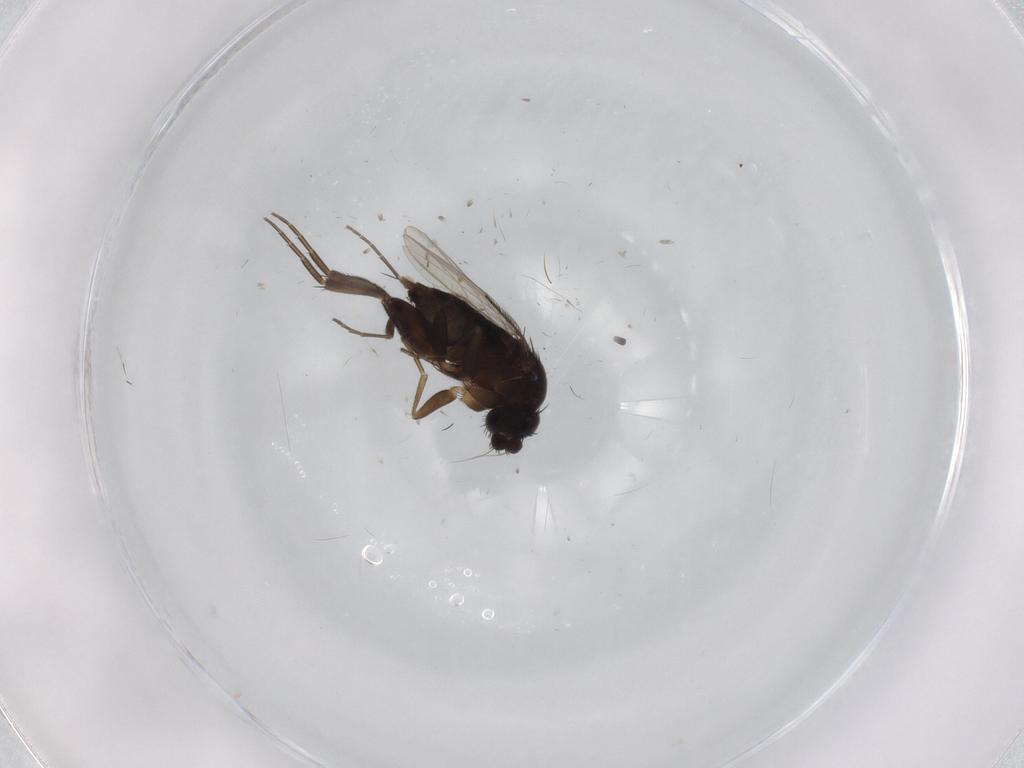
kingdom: Animalia
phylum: Arthropoda
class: Insecta
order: Diptera
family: Phoridae
